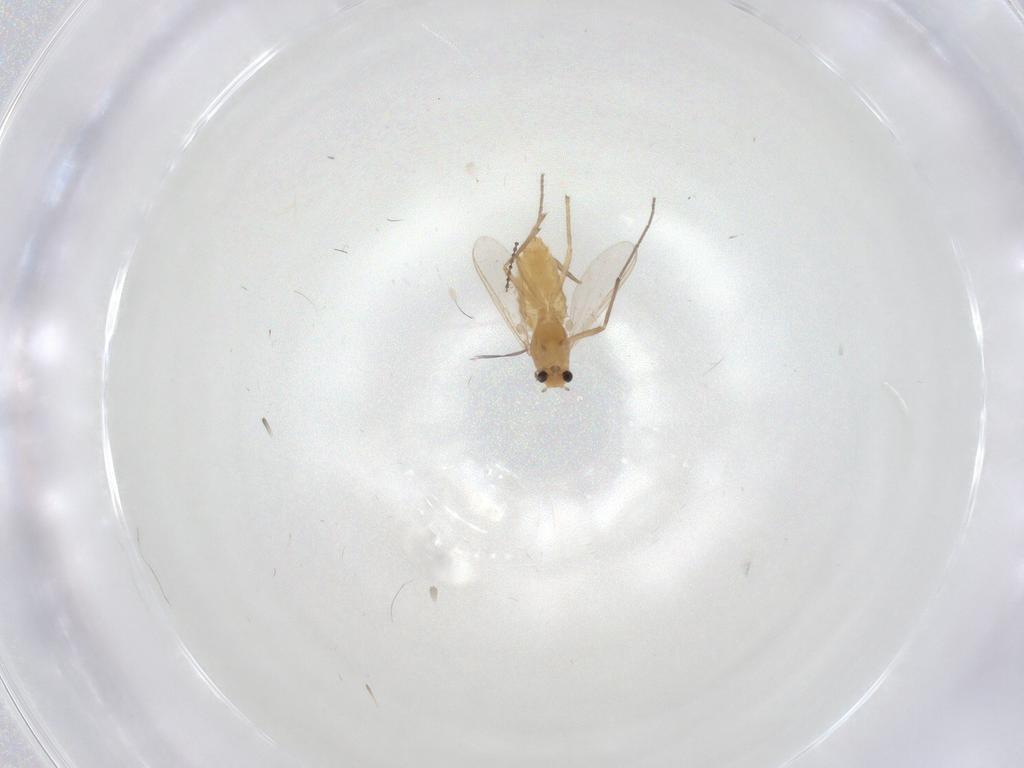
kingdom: Animalia
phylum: Arthropoda
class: Insecta
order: Diptera
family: Chironomidae
